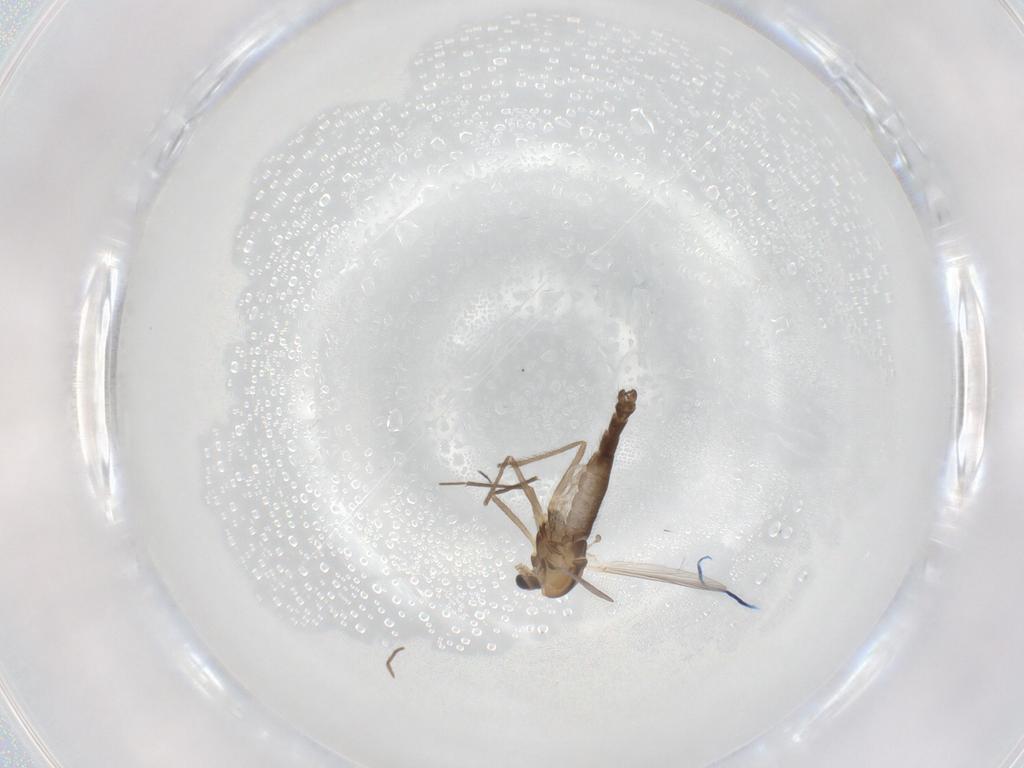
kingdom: Animalia
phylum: Arthropoda
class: Insecta
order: Diptera
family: Chironomidae
